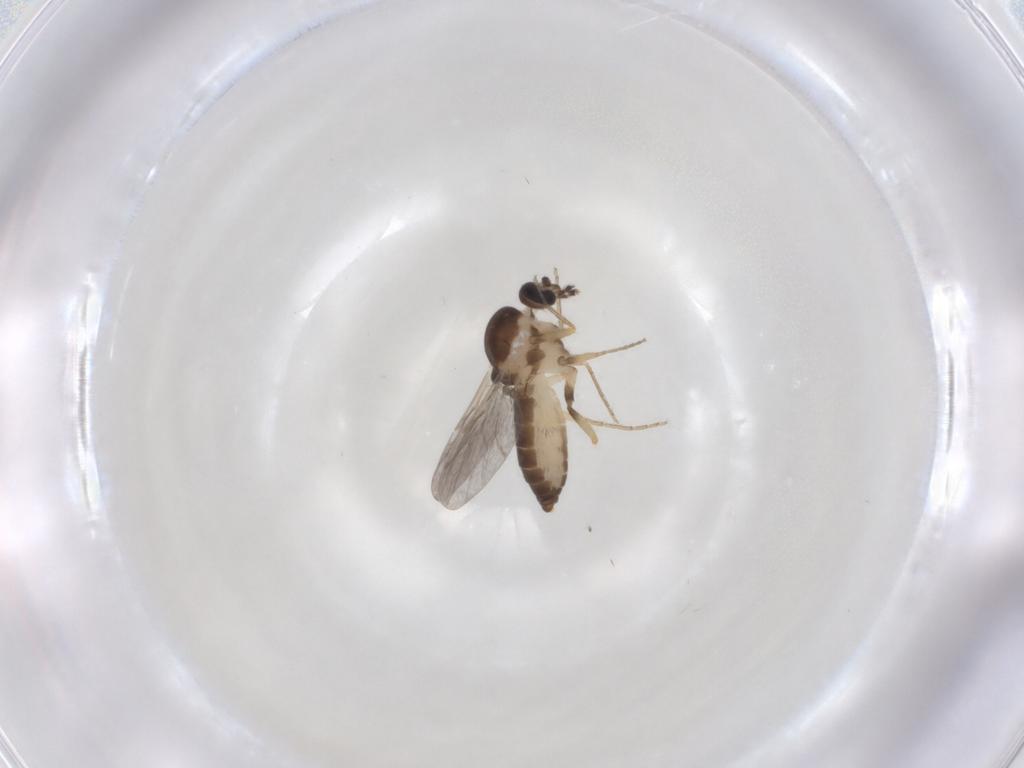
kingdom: Animalia
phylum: Arthropoda
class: Insecta
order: Diptera
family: Ceratopogonidae
